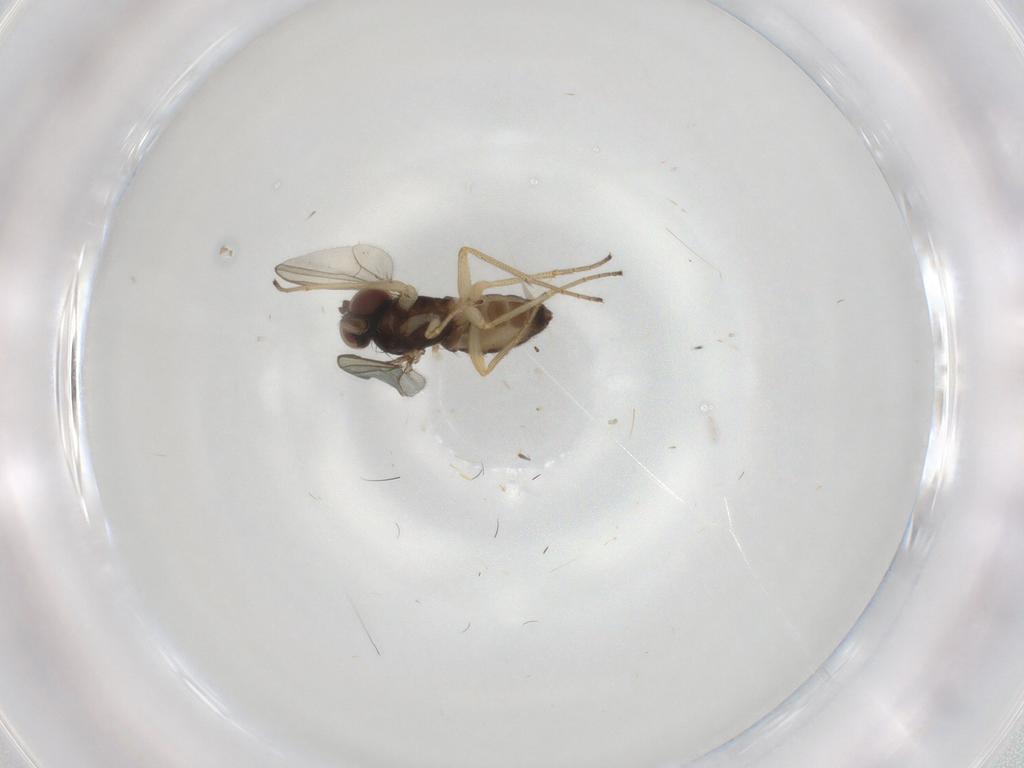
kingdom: Animalia
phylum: Arthropoda
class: Insecta
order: Diptera
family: Dolichopodidae
